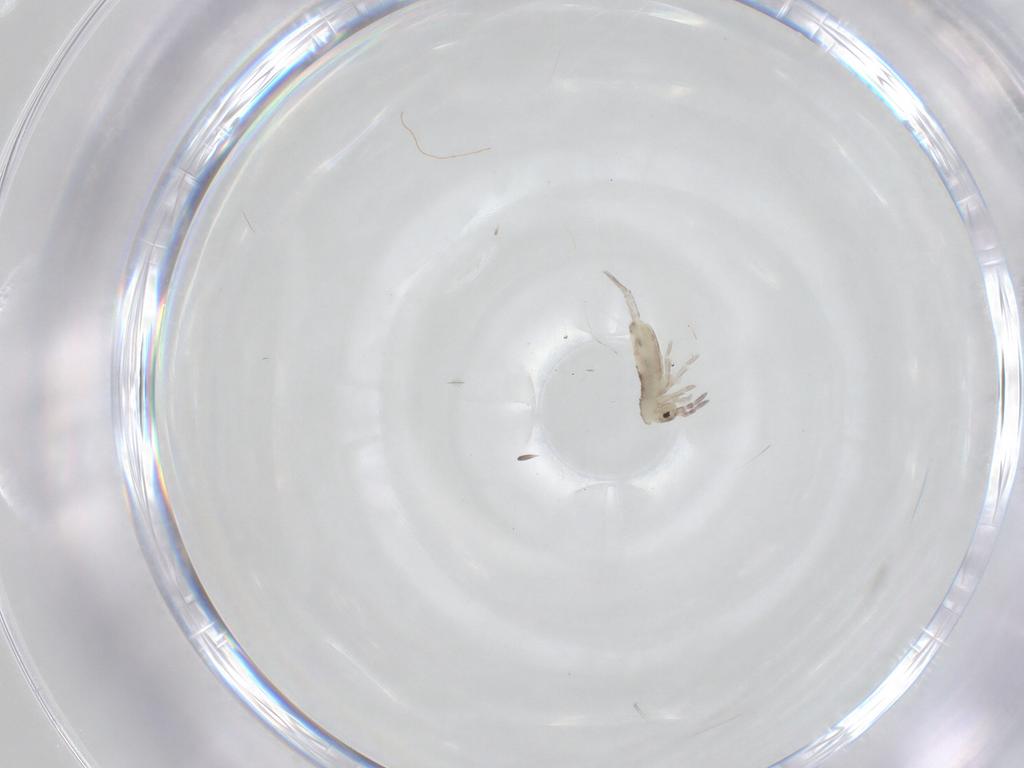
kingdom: Animalia
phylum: Arthropoda
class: Collembola
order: Entomobryomorpha
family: Entomobryidae
